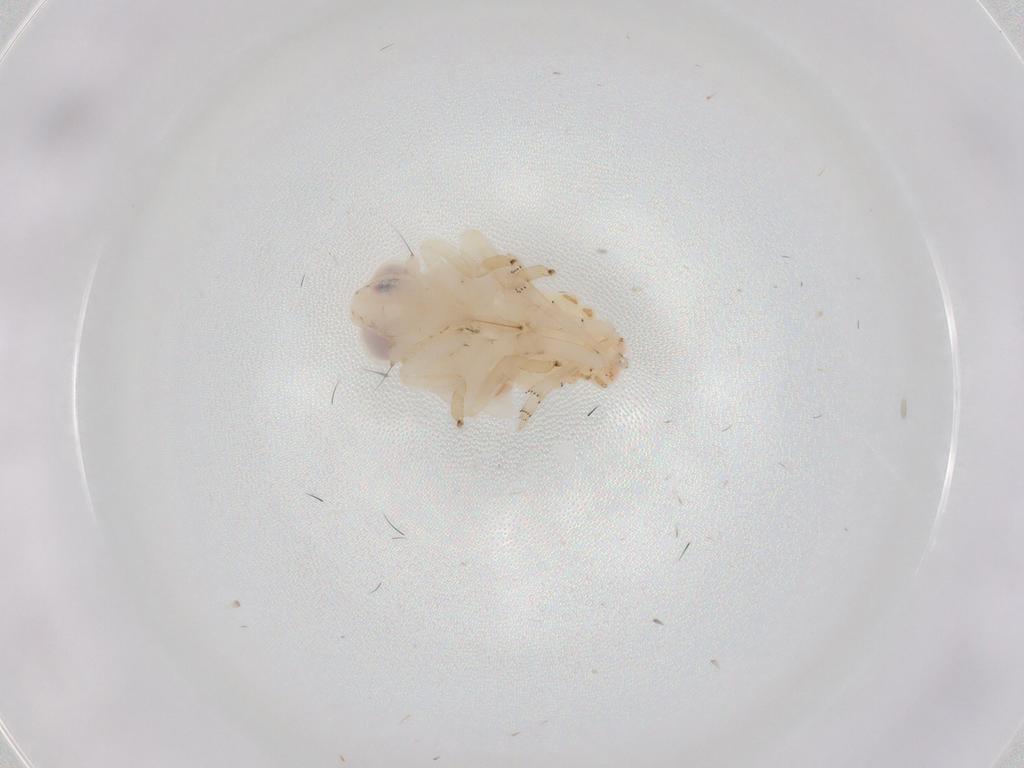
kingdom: Animalia
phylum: Arthropoda
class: Insecta
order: Hemiptera
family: Nogodinidae
